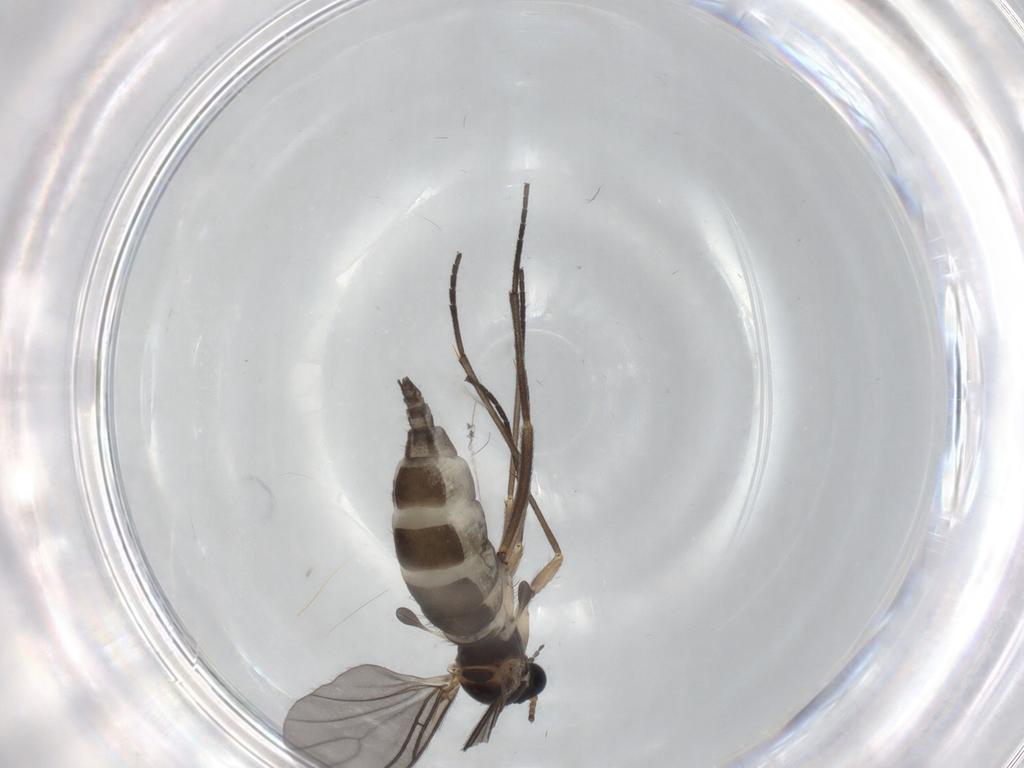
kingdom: Animalia
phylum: Arthropoda
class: Insecta
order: Diptera
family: Sciaridae
